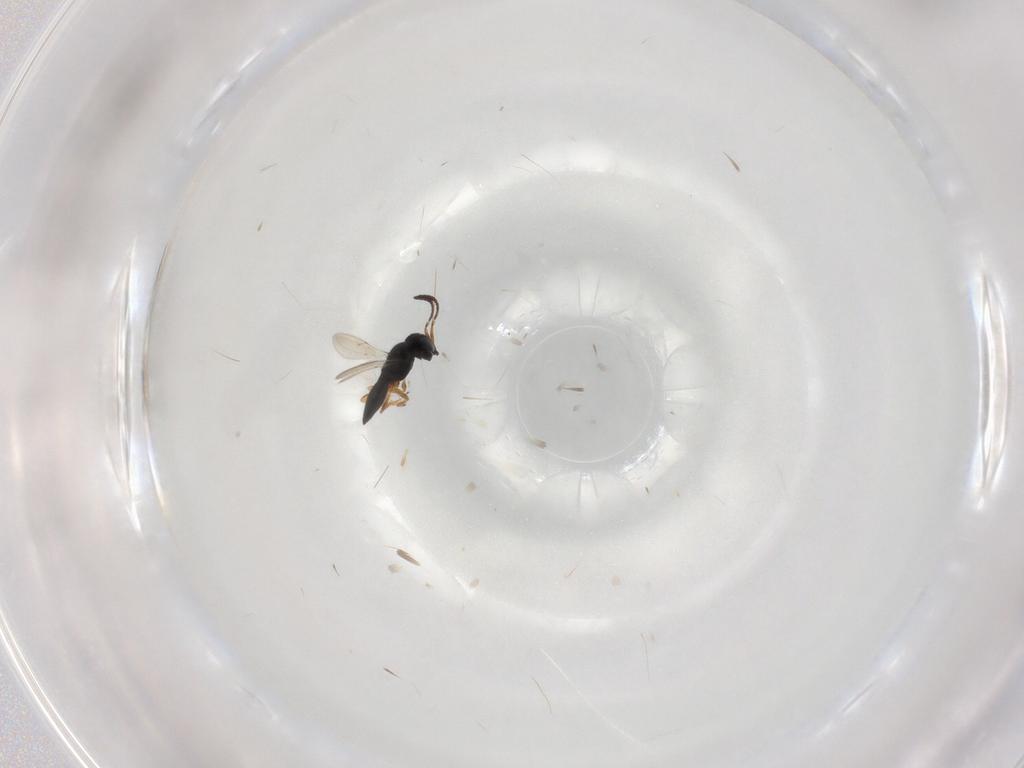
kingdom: Animalia
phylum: Arthropoda
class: Insecta
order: Hymenoptera
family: Scelionidae
